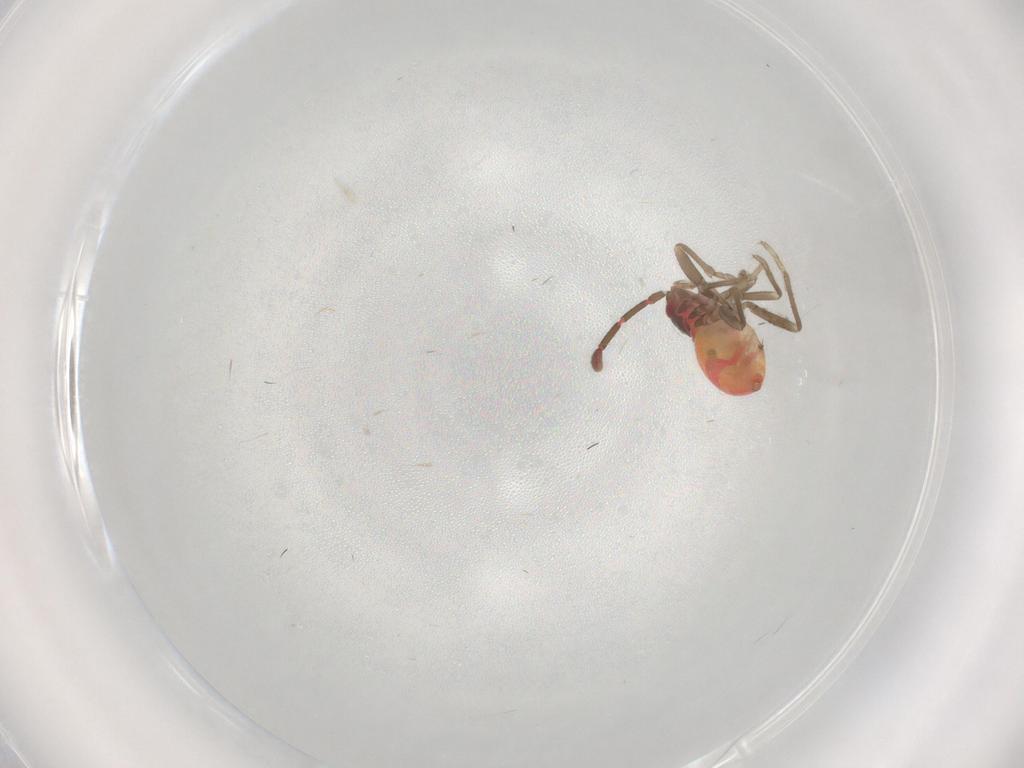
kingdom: Animalia
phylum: Arthropoda
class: Insecta
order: Hemiptera
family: Rhyparochromidae
